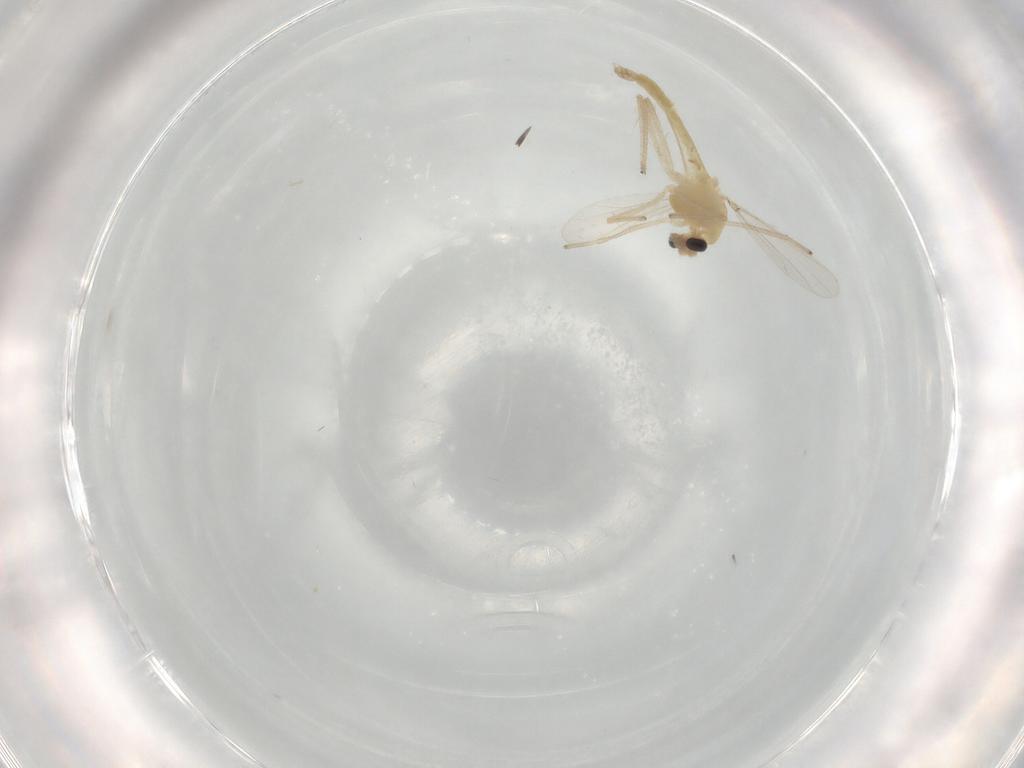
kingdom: Animalia
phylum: Arthropoda
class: Insecta
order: Diptera
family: Chironomidae
